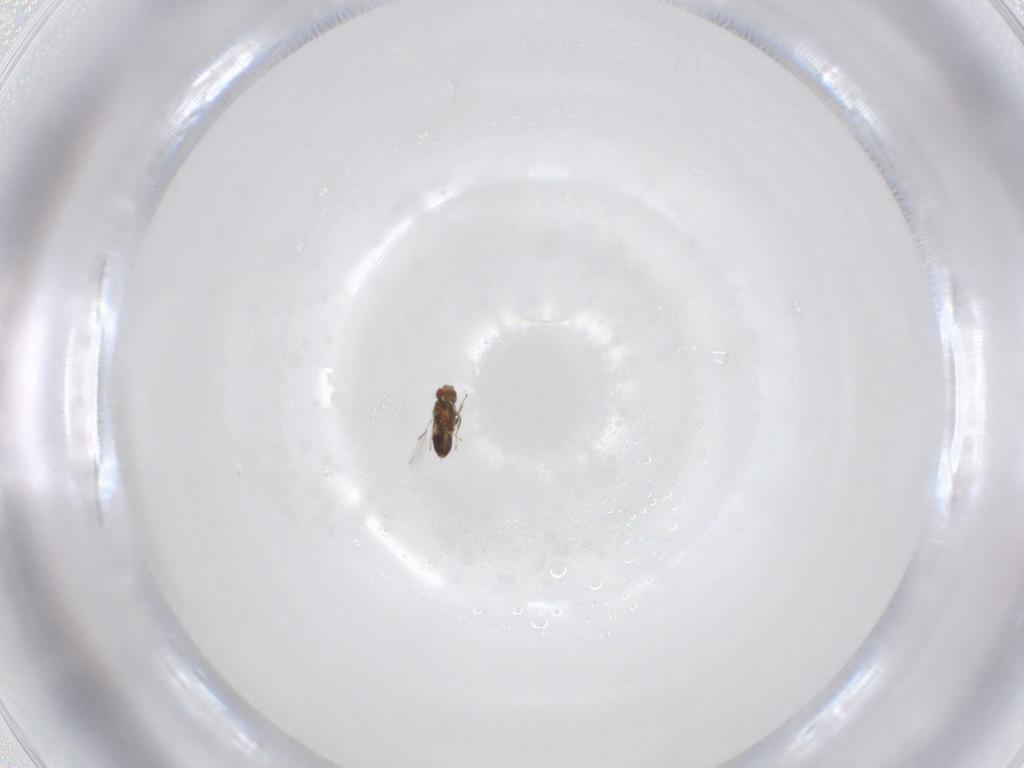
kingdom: Animalia
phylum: Arthropoda
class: Insecta
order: Hymenoptera
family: Trichogrammatidae
